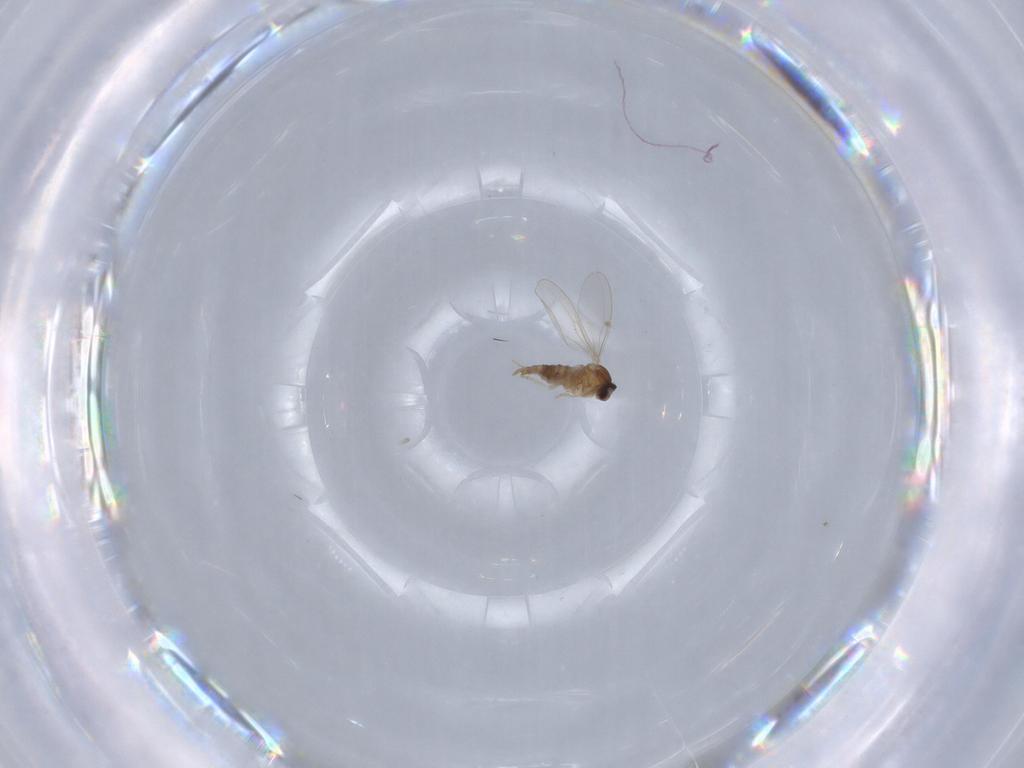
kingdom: Animalia
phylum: Arthropoda
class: Insecta
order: Diptera
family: Cecidomyiidae
